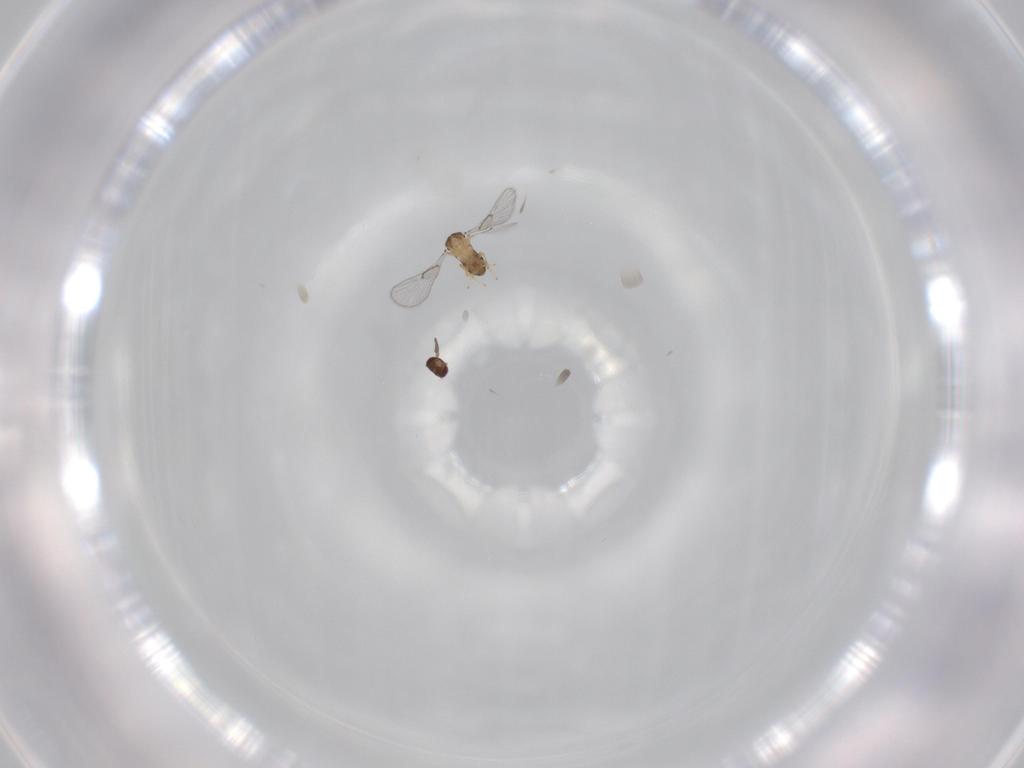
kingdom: Animalia
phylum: Arthropoda
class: Insecta
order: Hymenoptera
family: Trichogrammatidae
